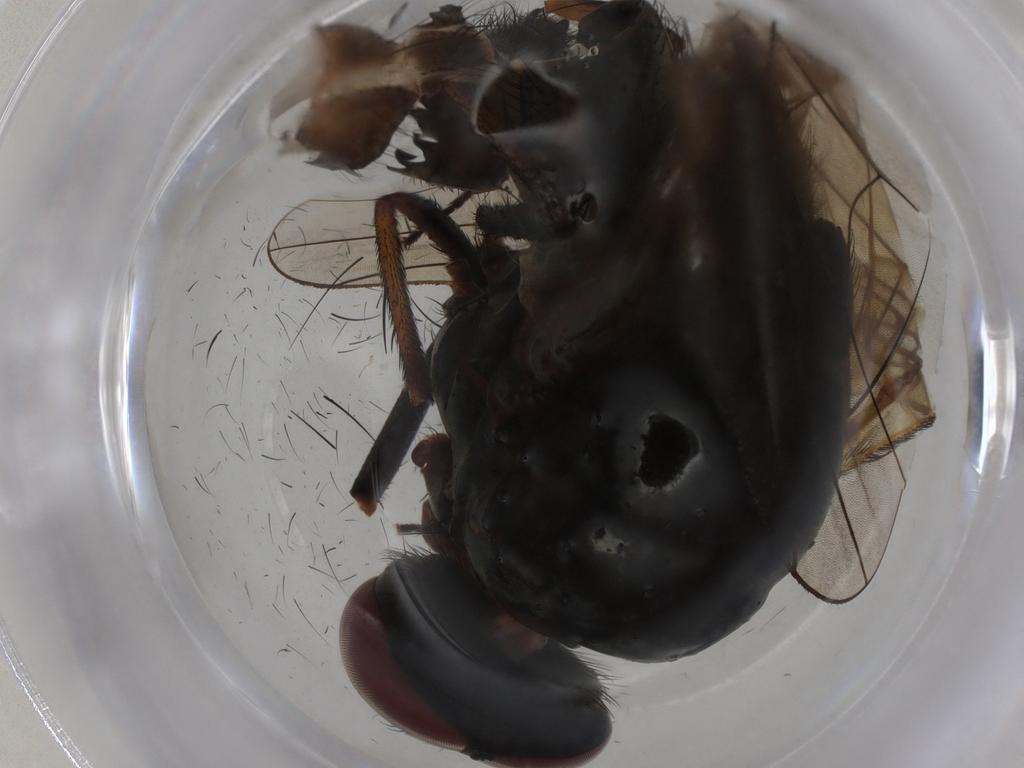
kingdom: Animalia
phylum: Arthropoda
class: Insecta
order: Diptera
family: Anthomyiidae
